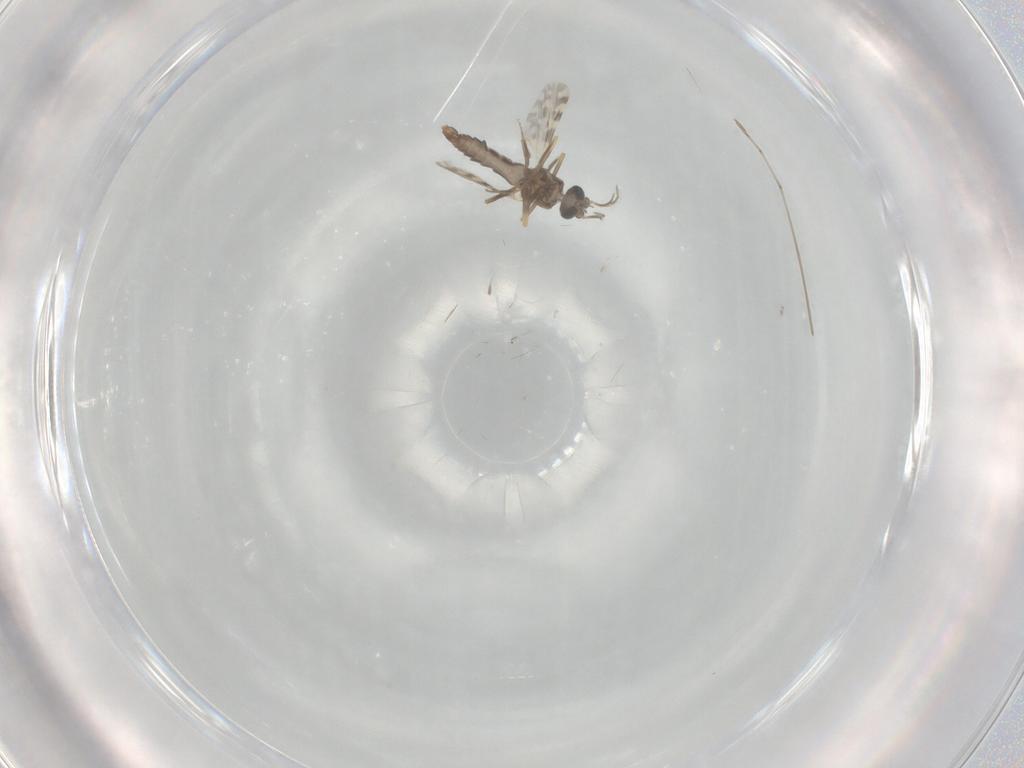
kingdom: Animalia
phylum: Arthropoda
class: Insecta
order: Diptera
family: Ceratopogonidae
